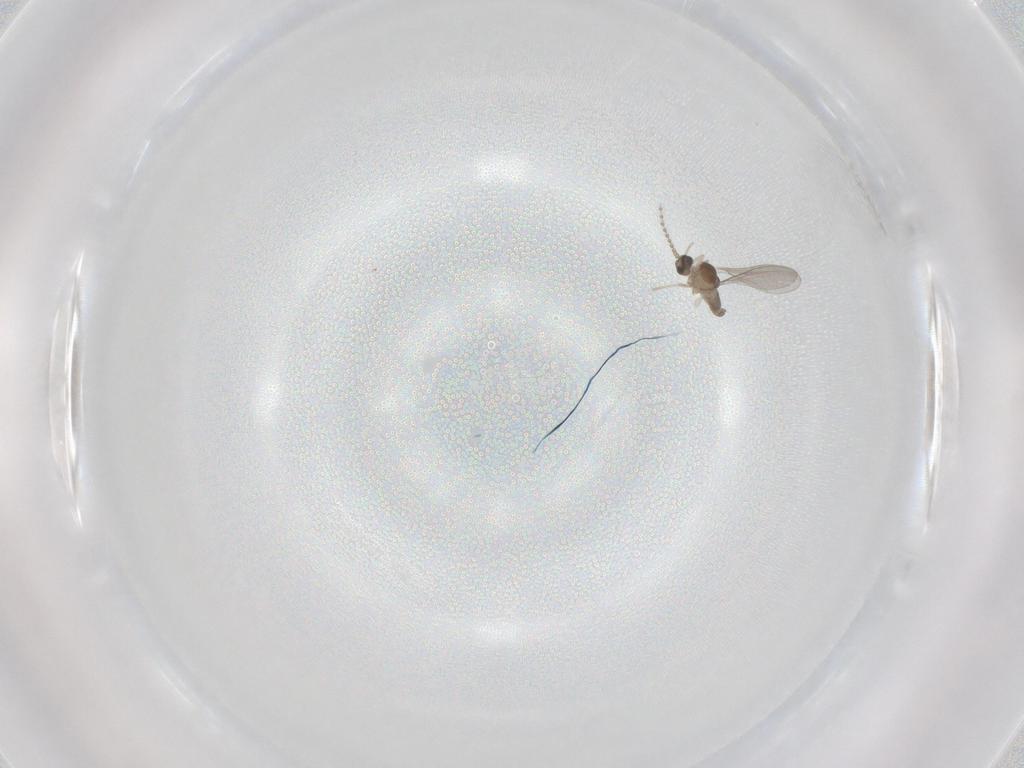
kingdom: Animalia
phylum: Arthropoda
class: Insecta
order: Diptera
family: Cecidomyiidae
